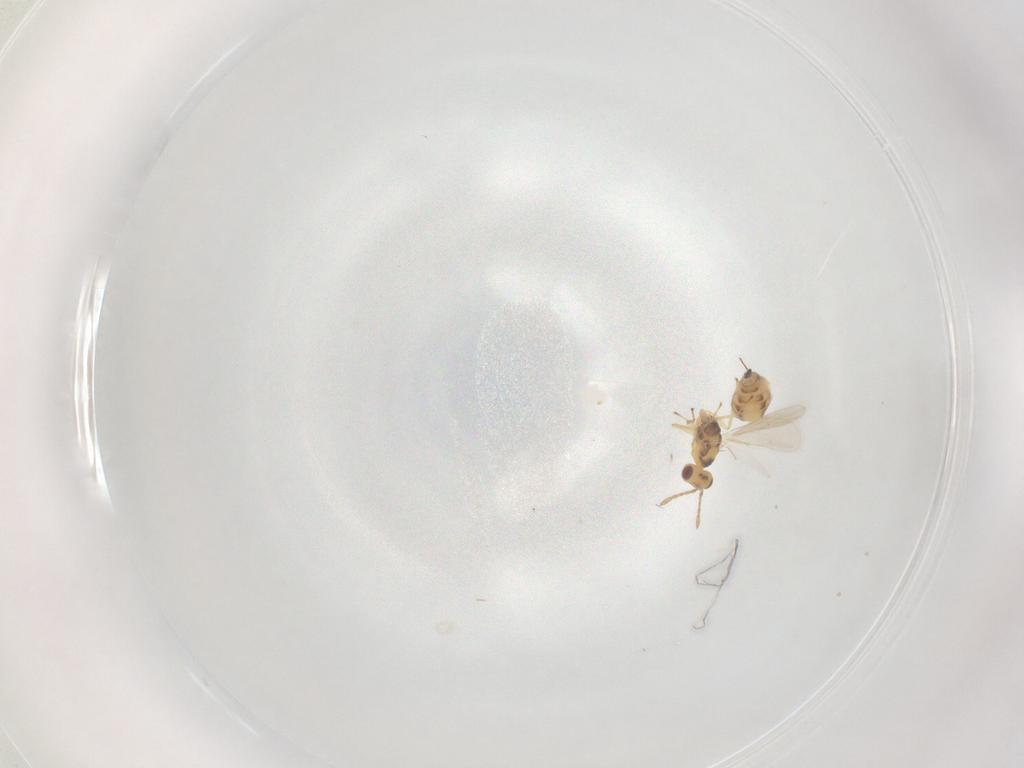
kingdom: Animalia
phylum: Arthropoda
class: Insecta
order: Hymenoptera
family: Eulophidae
